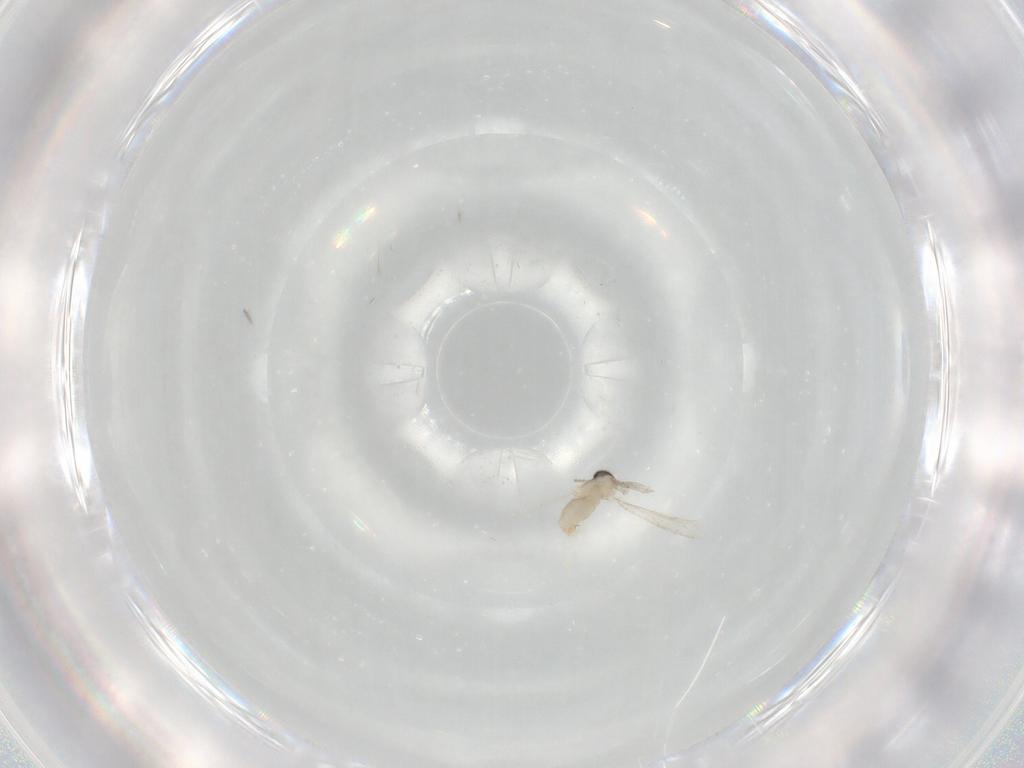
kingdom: Animalia
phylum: Arthropoda
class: Insecta
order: Diptera
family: Cecidomyiidae
